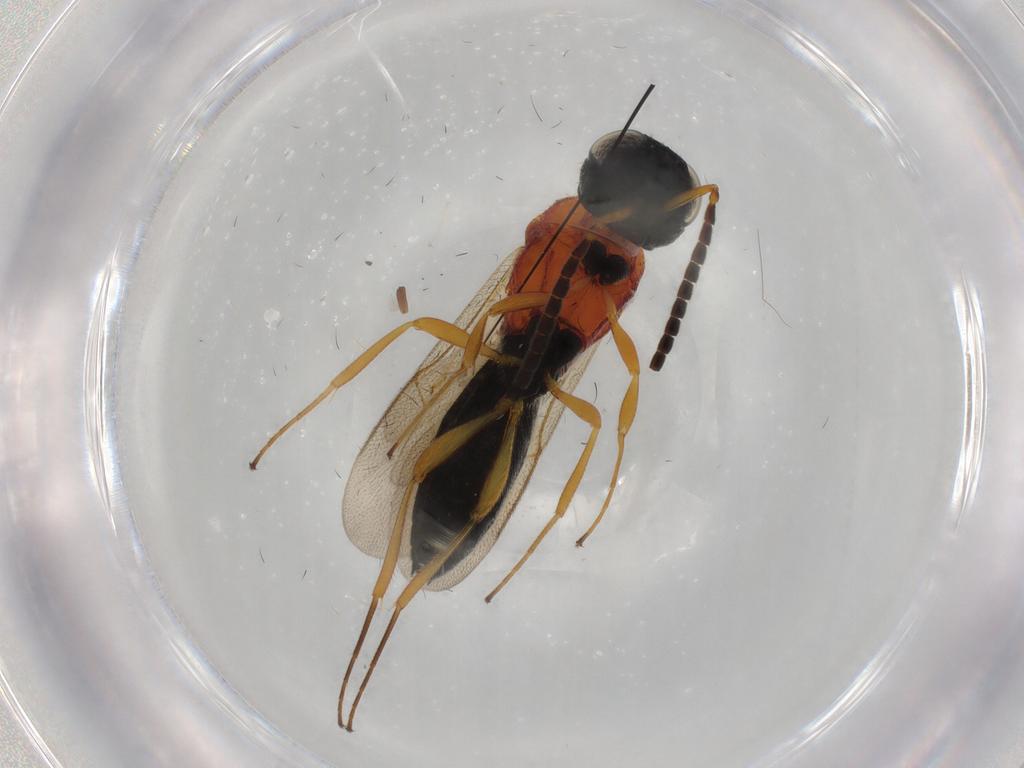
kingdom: Animalia
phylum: Arthropoda
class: Insecta
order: Hymenoptera
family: Scelionidae
